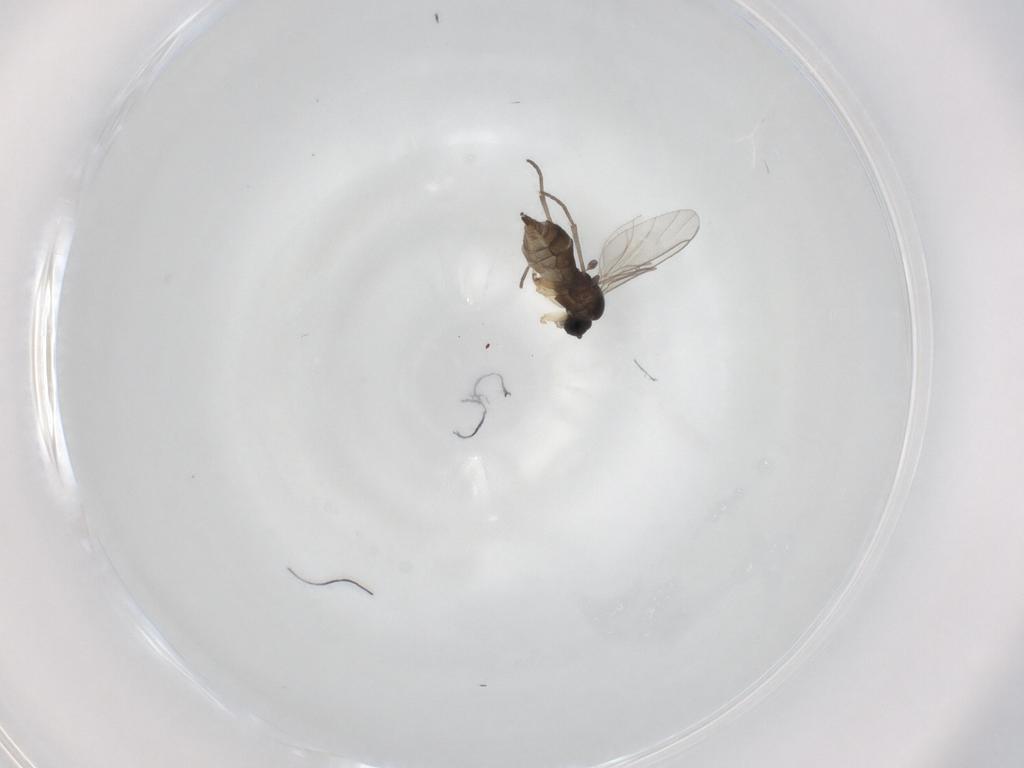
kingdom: Animalia
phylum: Arthropoda
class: Insecta
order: Diptera
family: Sciaridae
